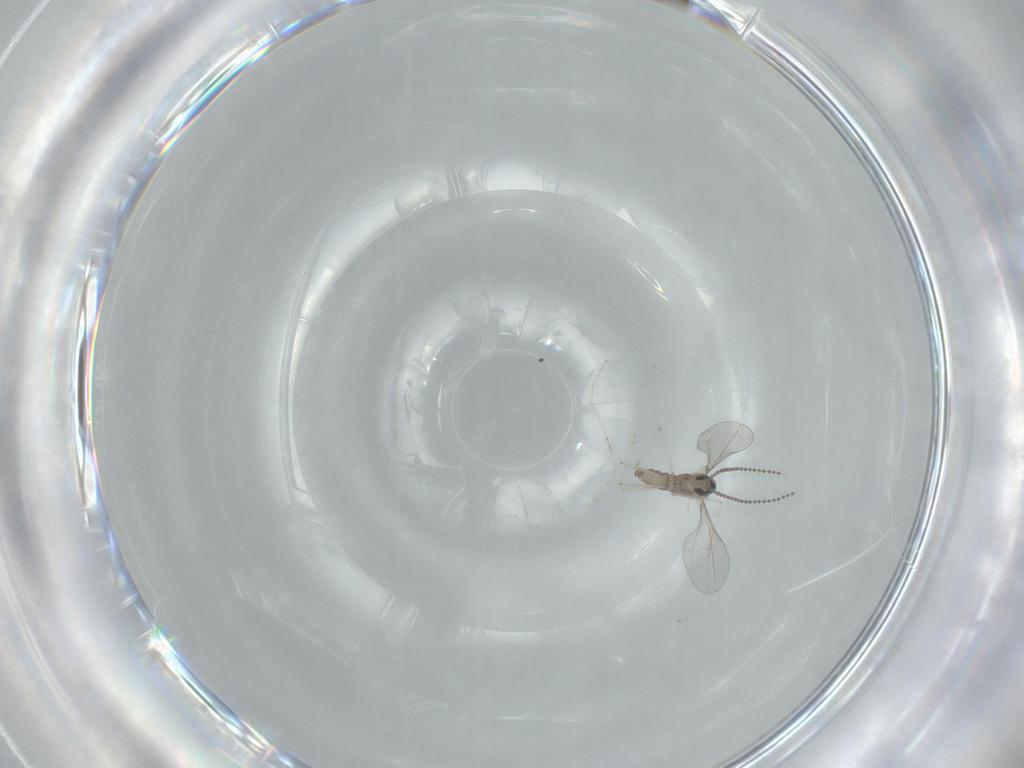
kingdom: Animalia
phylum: Arthropoda
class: Insecta
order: Diptera
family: Cecidomyiidae
